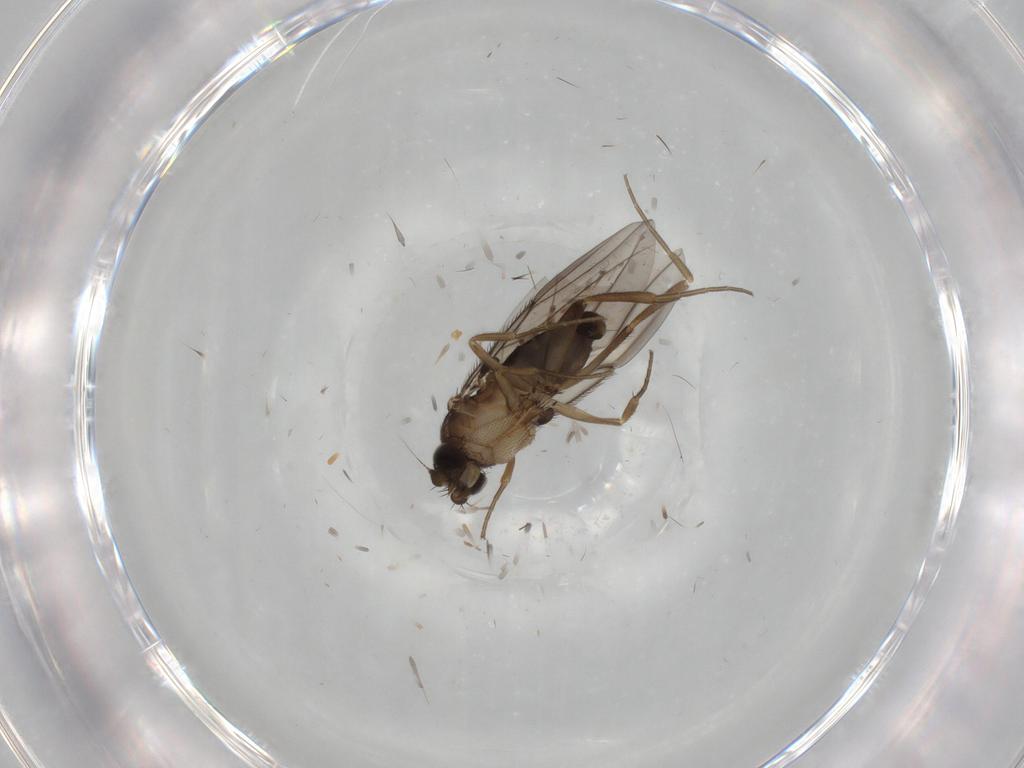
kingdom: Animalia
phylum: Arthropoda
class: Insecta
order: Diptera
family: Phoridae
